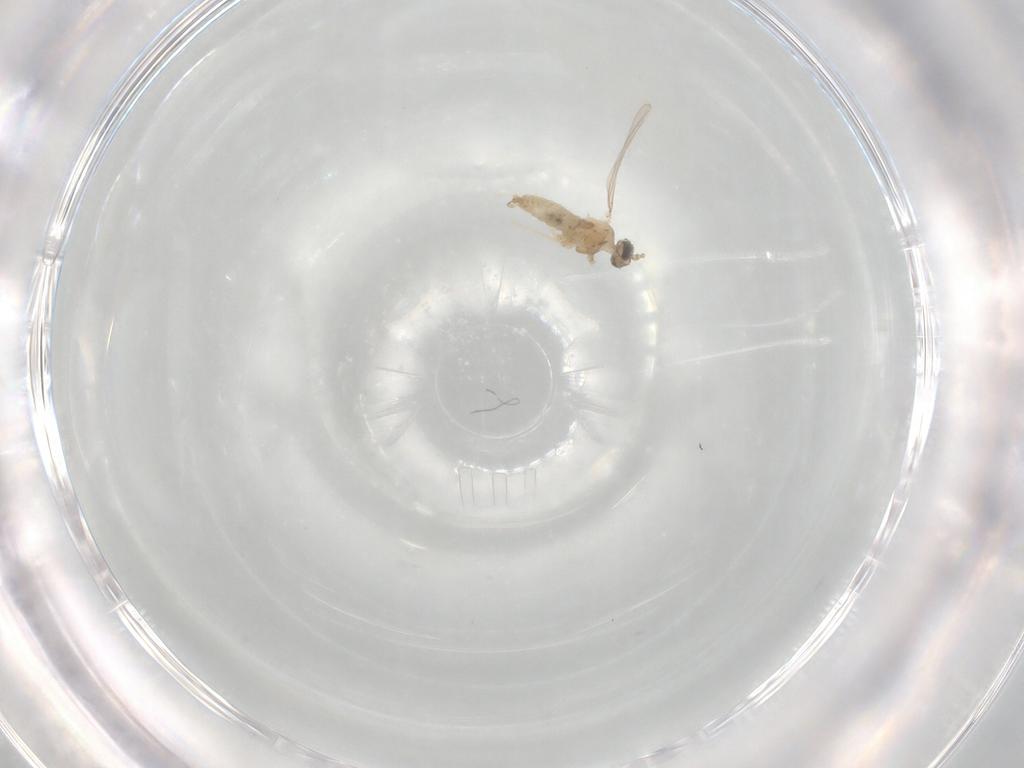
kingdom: Animalia
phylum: Arthropoda
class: Insecta
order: Diptera
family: Cecidomyiidae
